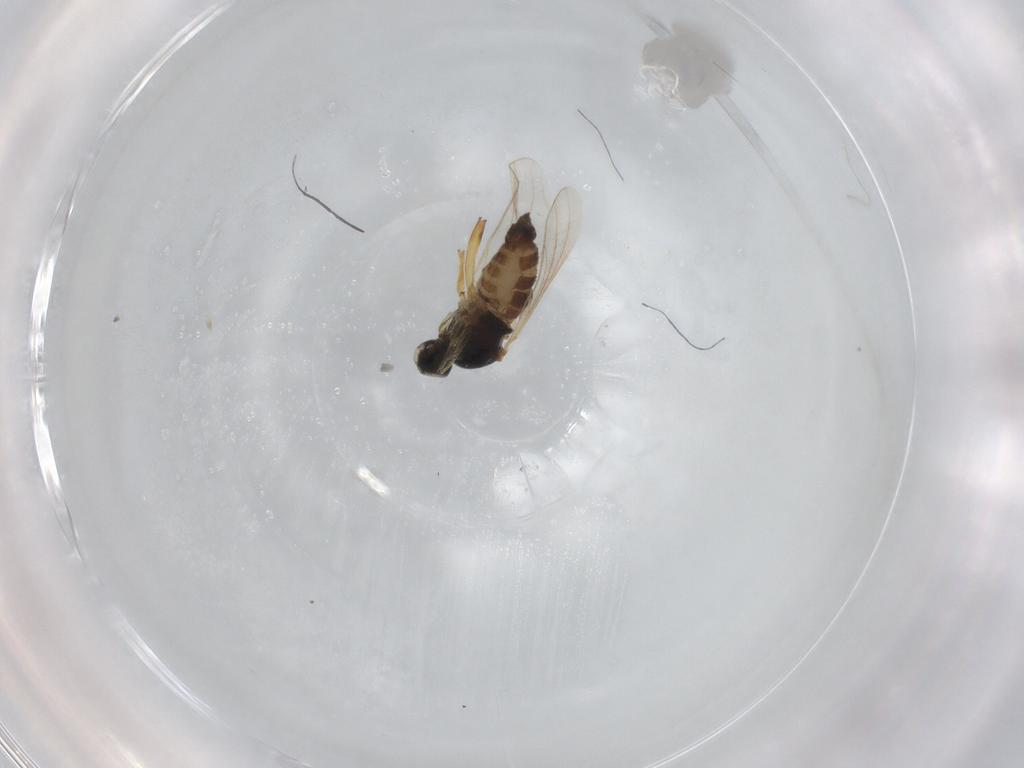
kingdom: Animalia
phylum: Arthropoda
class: Insecta
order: Diptera
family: Hybotidae
